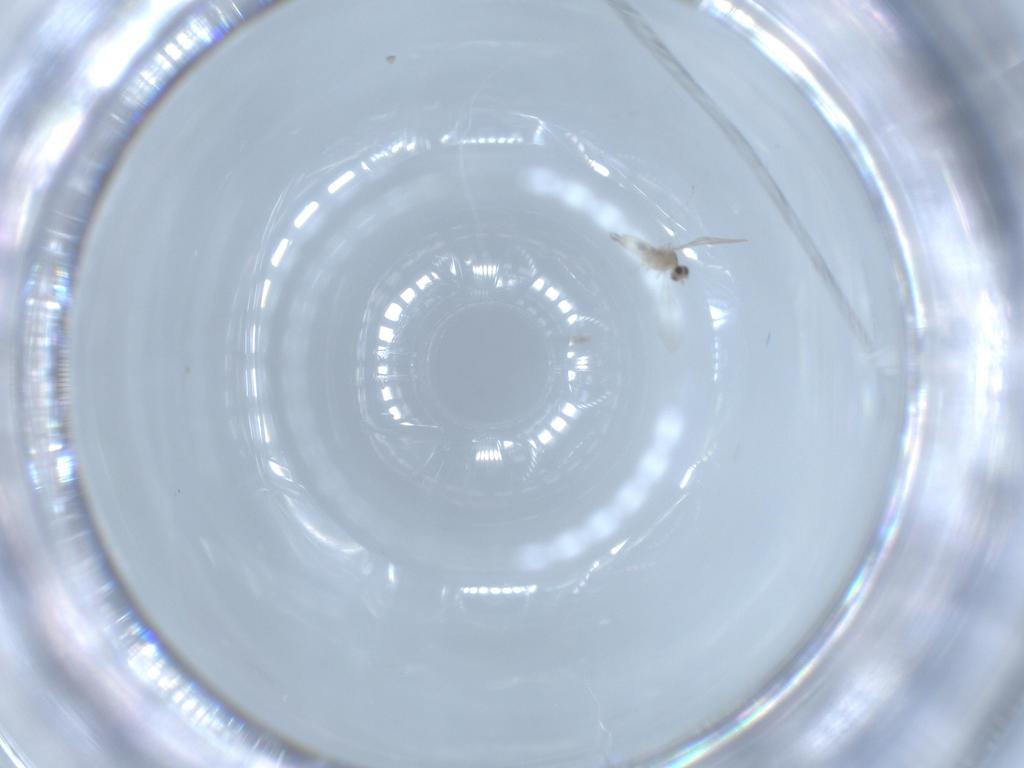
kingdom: Animalia
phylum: Arthropoda
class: Insecta
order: Diptera
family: Cecidomyiidae
